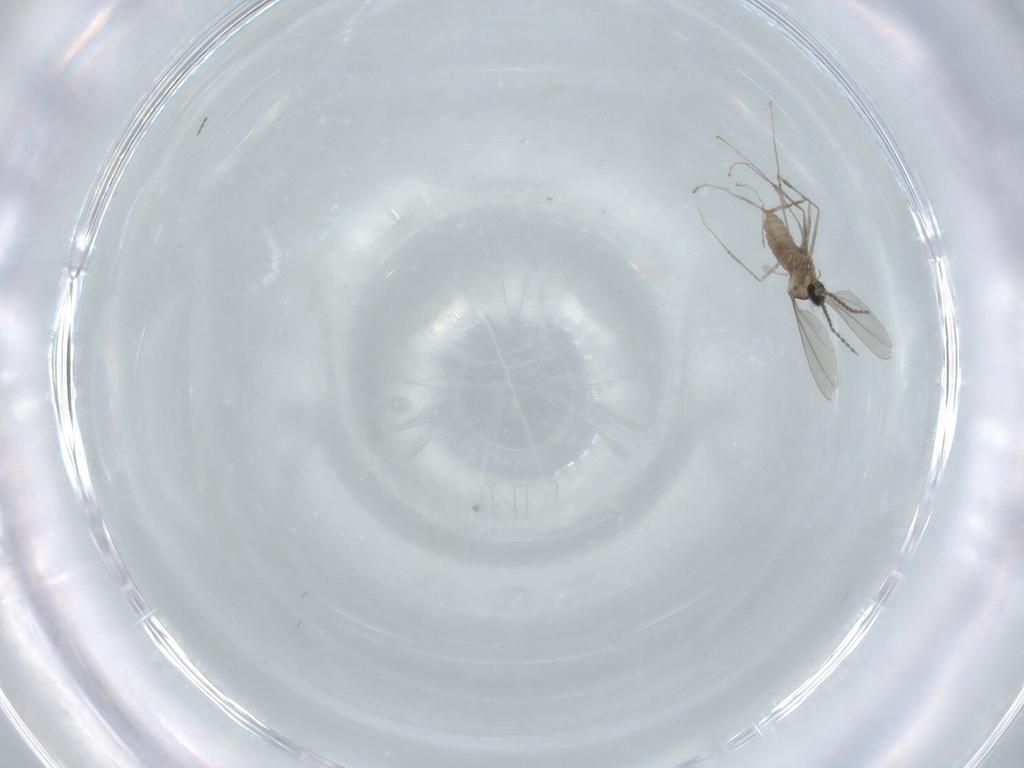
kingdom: Animalia
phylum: Arthropoda
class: Insecta
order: Diptera
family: Cecidomyiidae
